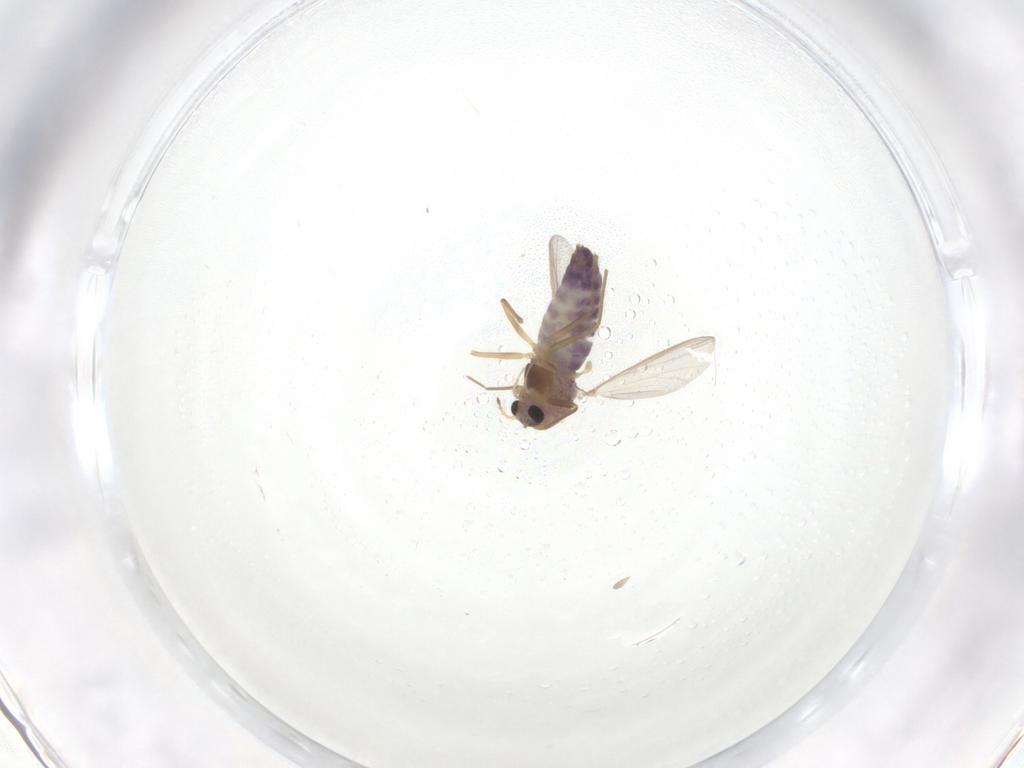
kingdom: Animalia
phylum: Arthropoda
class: Insecta
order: Diptera
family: Chironomidae
